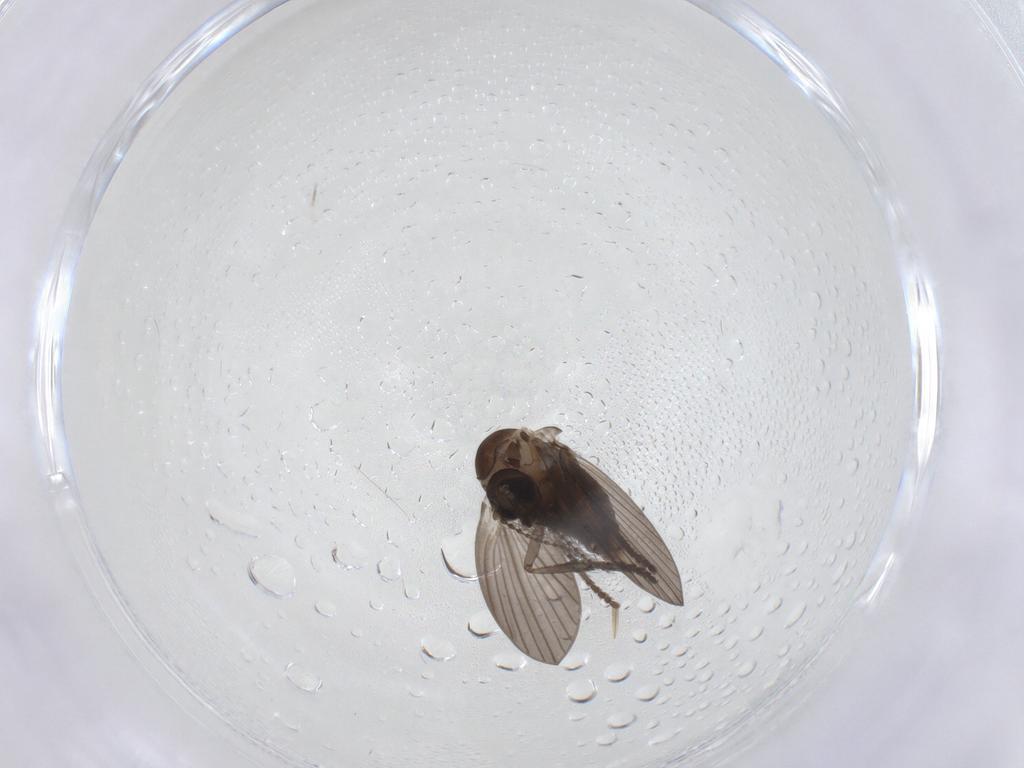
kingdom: Animalia
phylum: Arthropoda
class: Insecta
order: Diptera
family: Psychodidae
